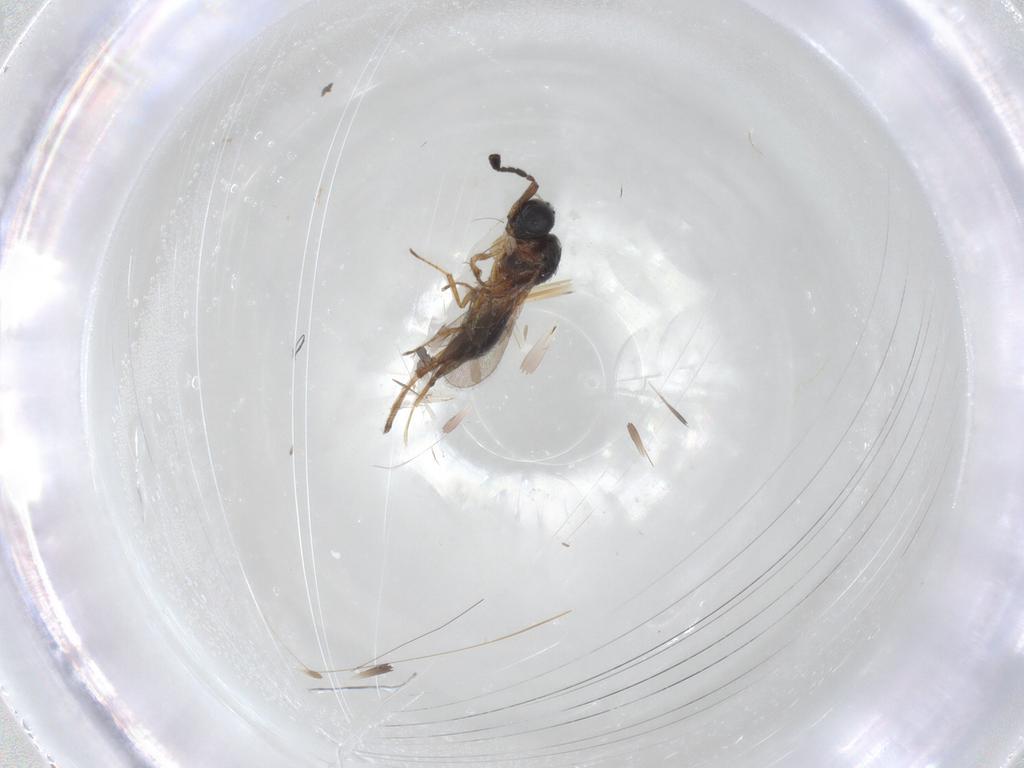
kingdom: Animalia
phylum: Arthropoda
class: Insecta
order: Hymenoptera
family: Scelionidae
